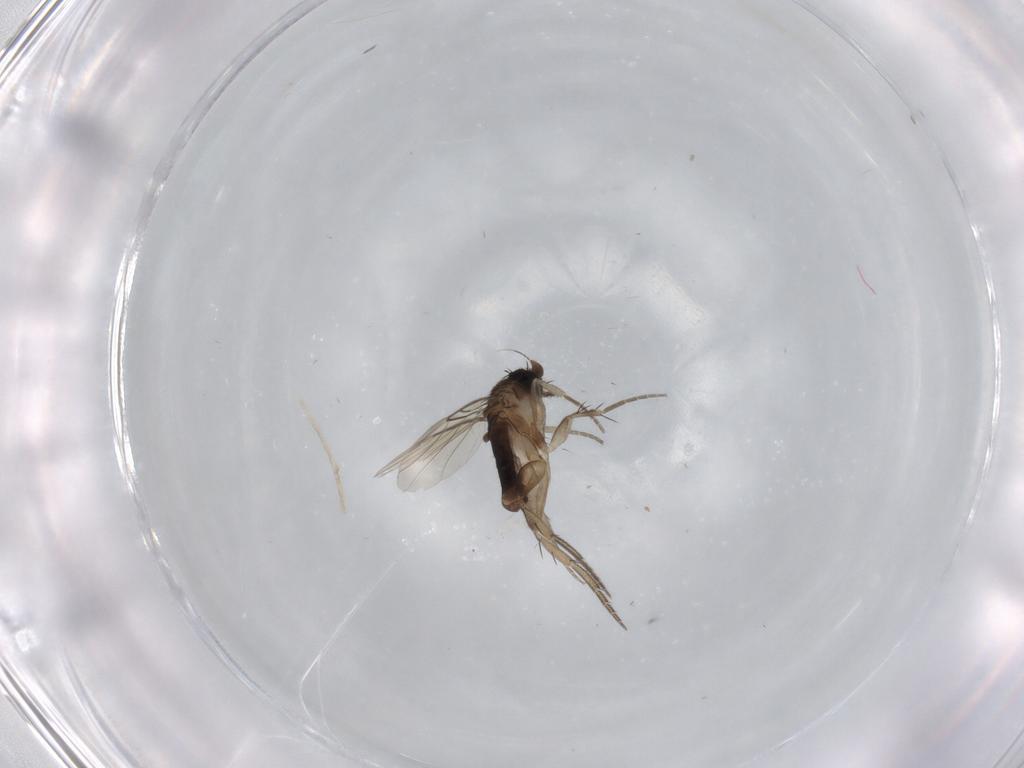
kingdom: Animalia
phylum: Arthropoda
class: Insecta
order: Diptera
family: Phoridae
